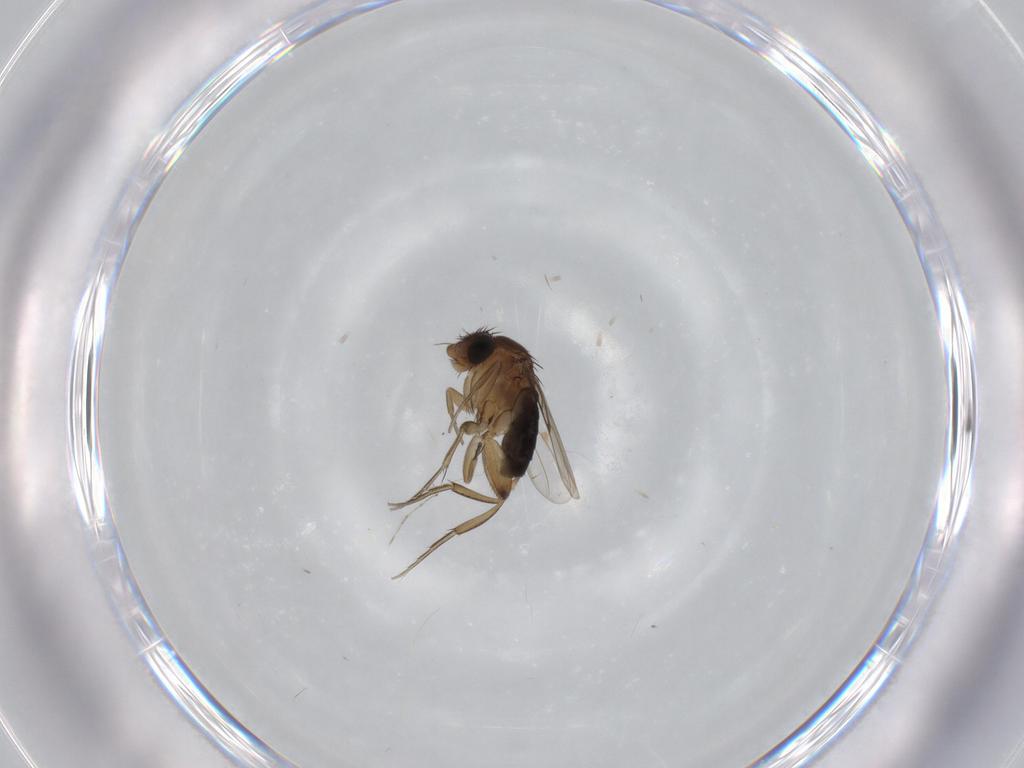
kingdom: Animalia
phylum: Arthropoda
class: Insecta
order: Diptera
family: Phoridae
